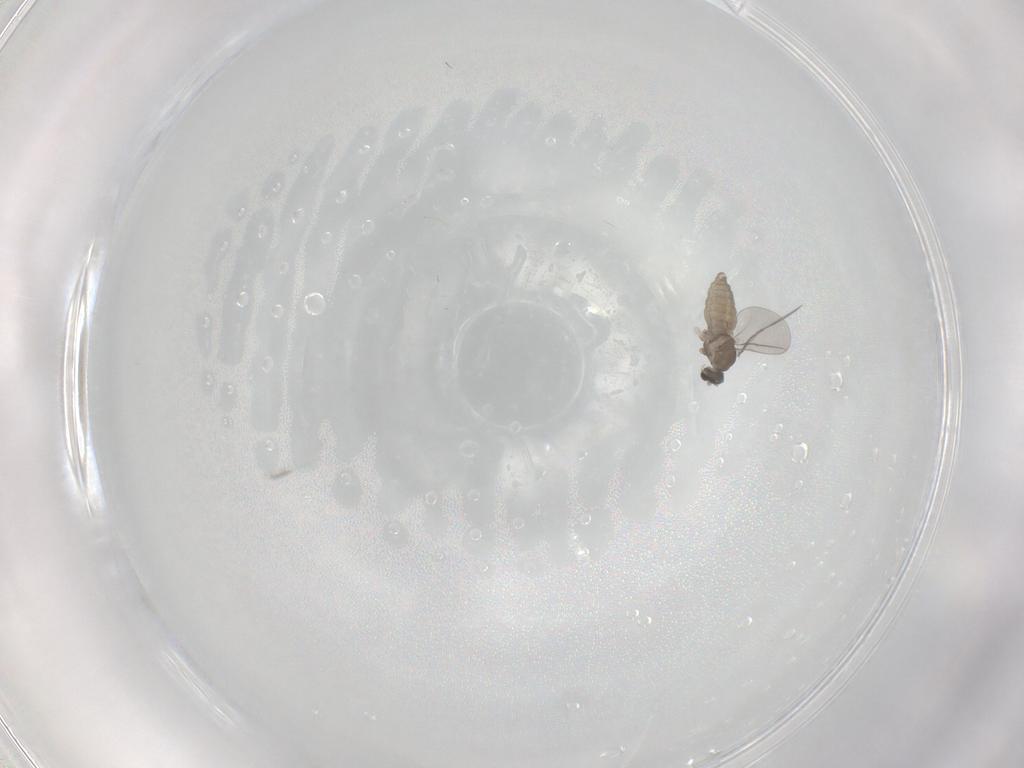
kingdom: Animalia
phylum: Arthropoda
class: Insecta
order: Diptera
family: Cecidomyiidae
